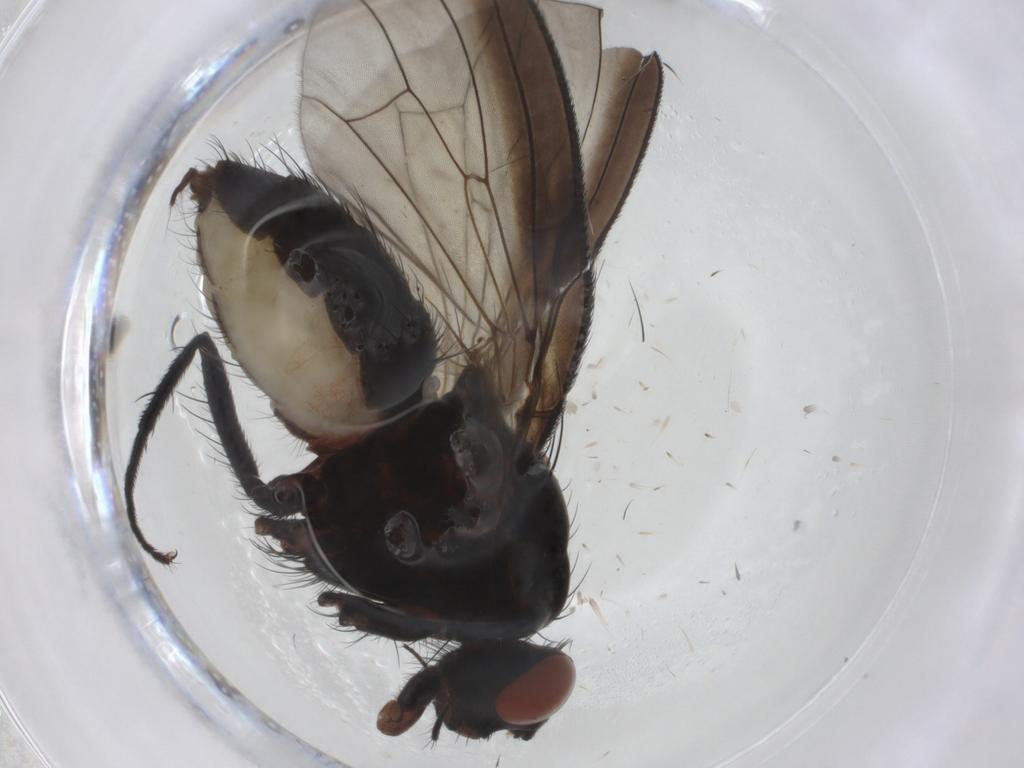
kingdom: Animalia
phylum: Arthropoda
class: Insecta
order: Diptera
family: Anthomyiidae
